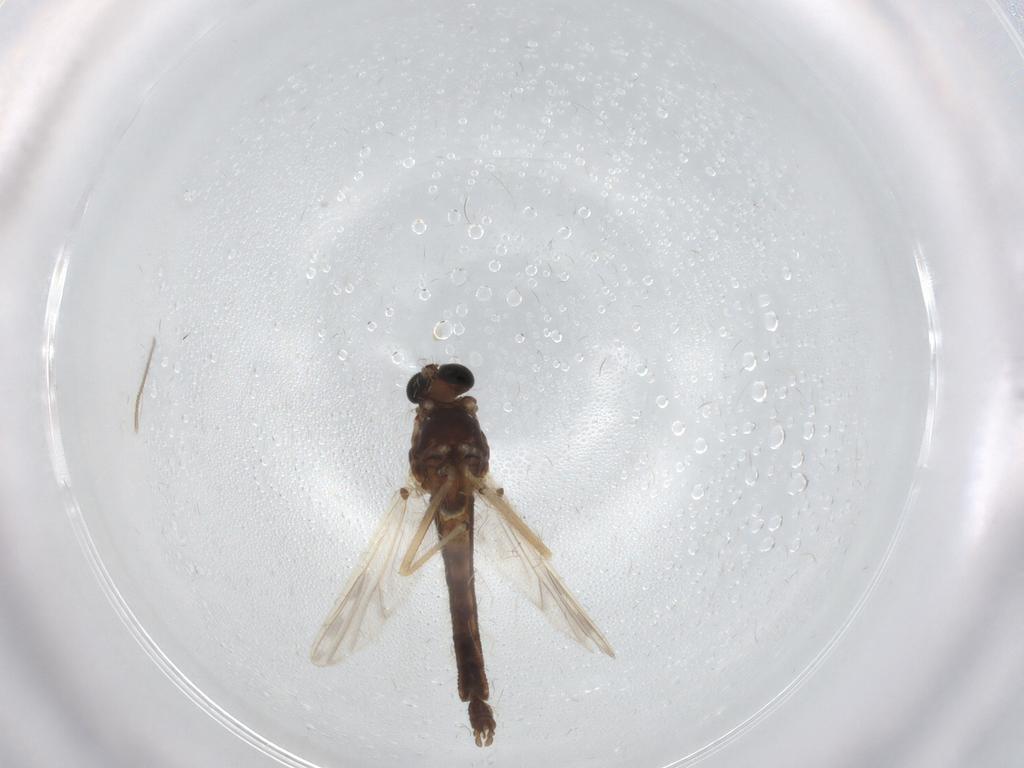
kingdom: Animalia
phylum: Arthropoda
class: Insecta
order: Diptera
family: Chironomidae
